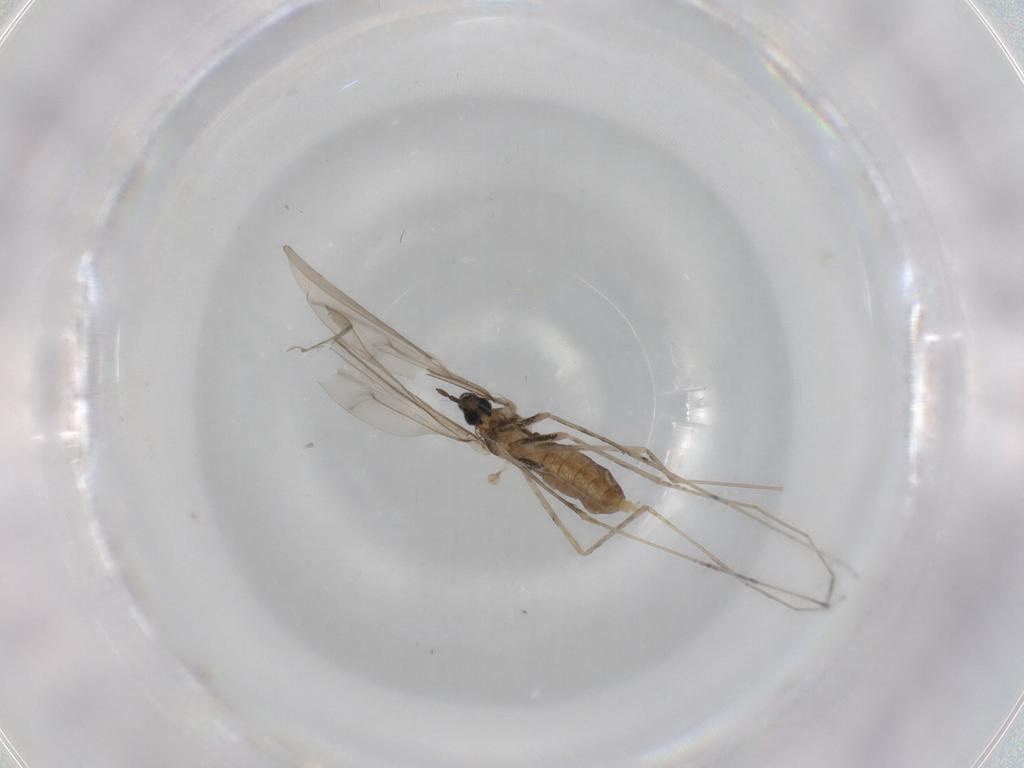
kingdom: Animalia
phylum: Arthropoda
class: Insecta
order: Diptera
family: Cecidomyiidae
